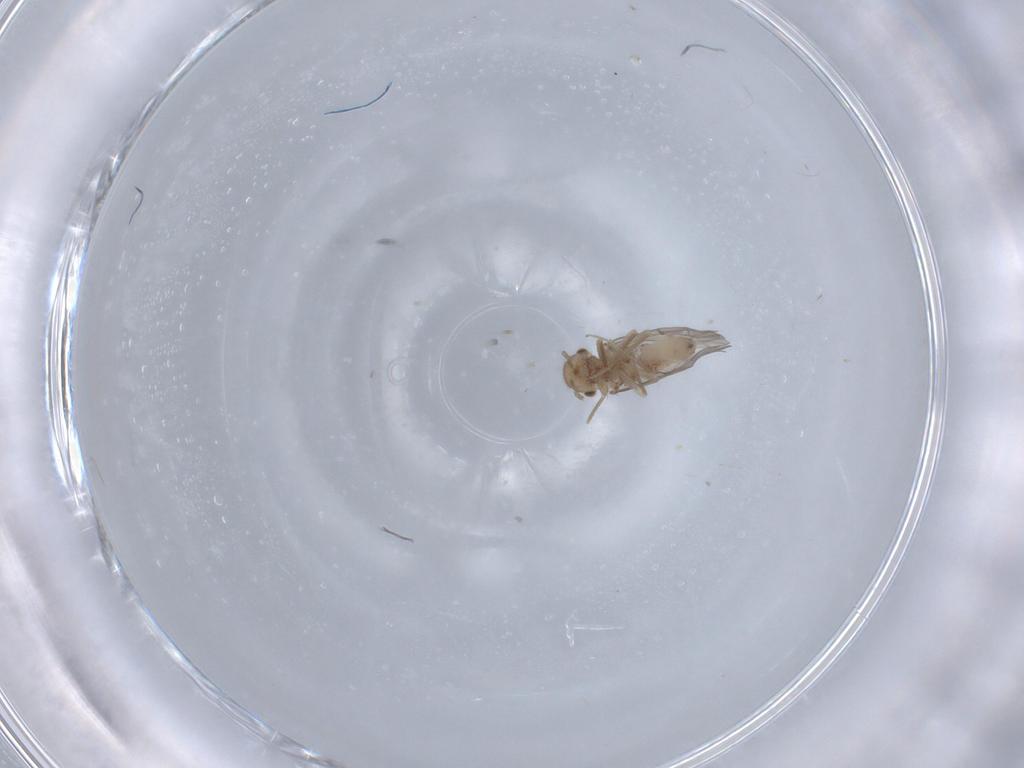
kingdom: Animalia
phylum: Arthropoda
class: Insecta
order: Psocodea
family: Ectopsocidae
